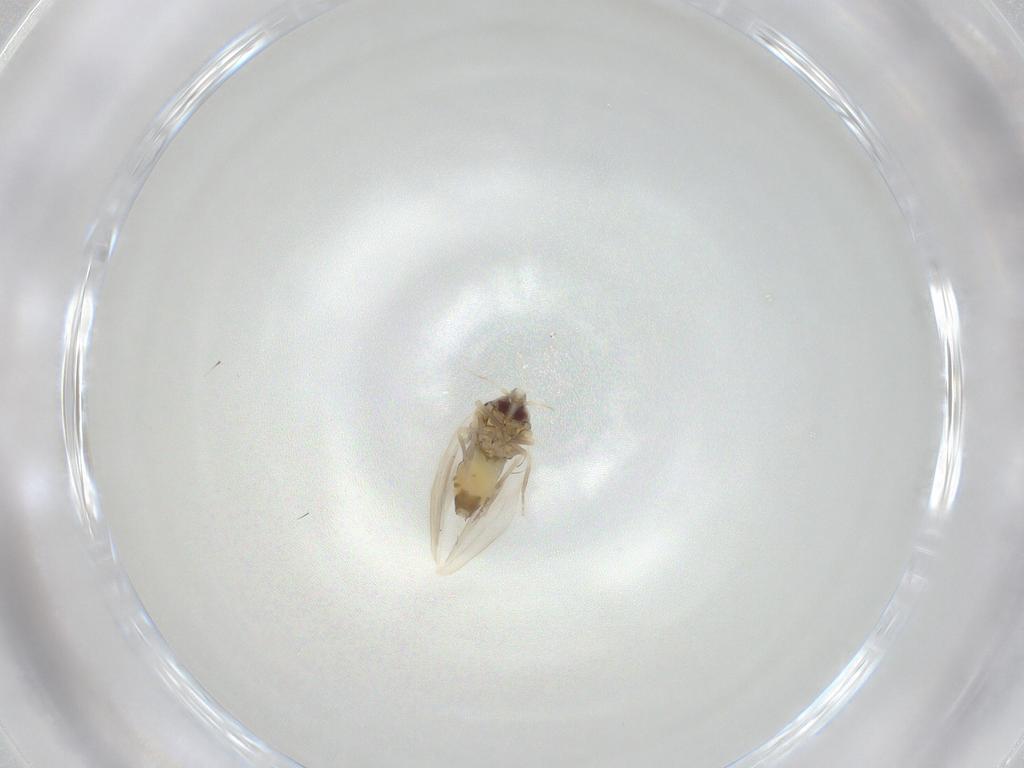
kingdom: Animalia
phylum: Arthropoda
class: Insecta
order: Hemiptera
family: Aleyrodidae
